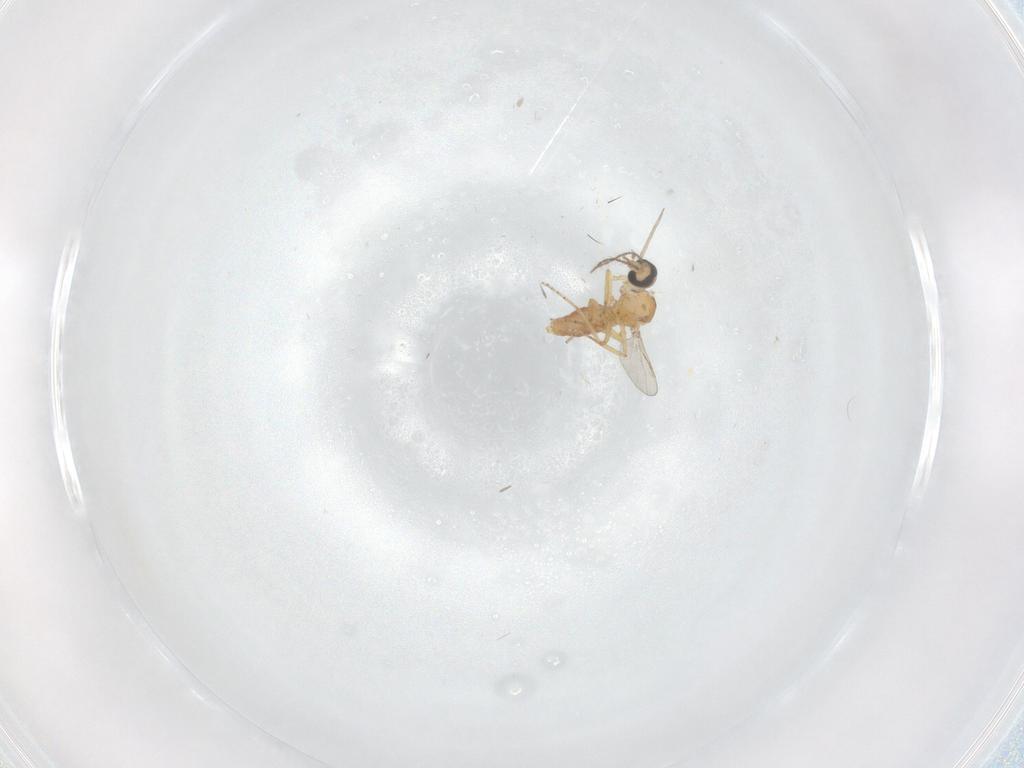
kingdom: Animalia
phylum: Arthropoda
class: Insecta
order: Diptera
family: Ceratopogonidae
